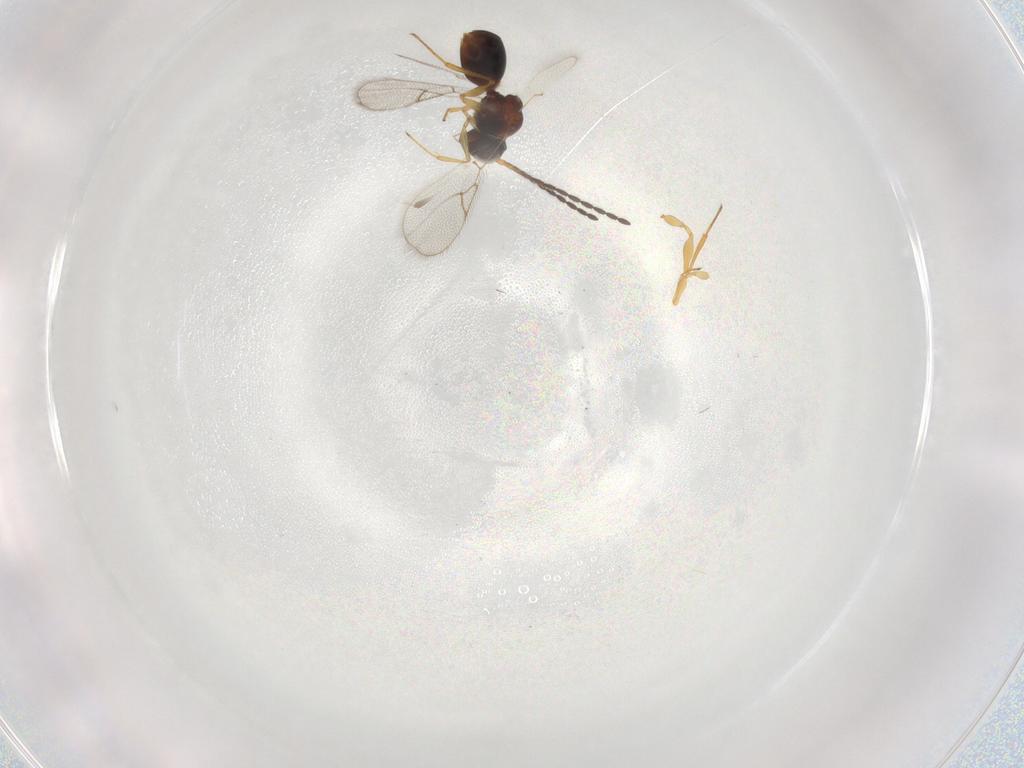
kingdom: Animalia
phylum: Arthropoda
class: Insecta
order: Hymenoptera
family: Figitidae
